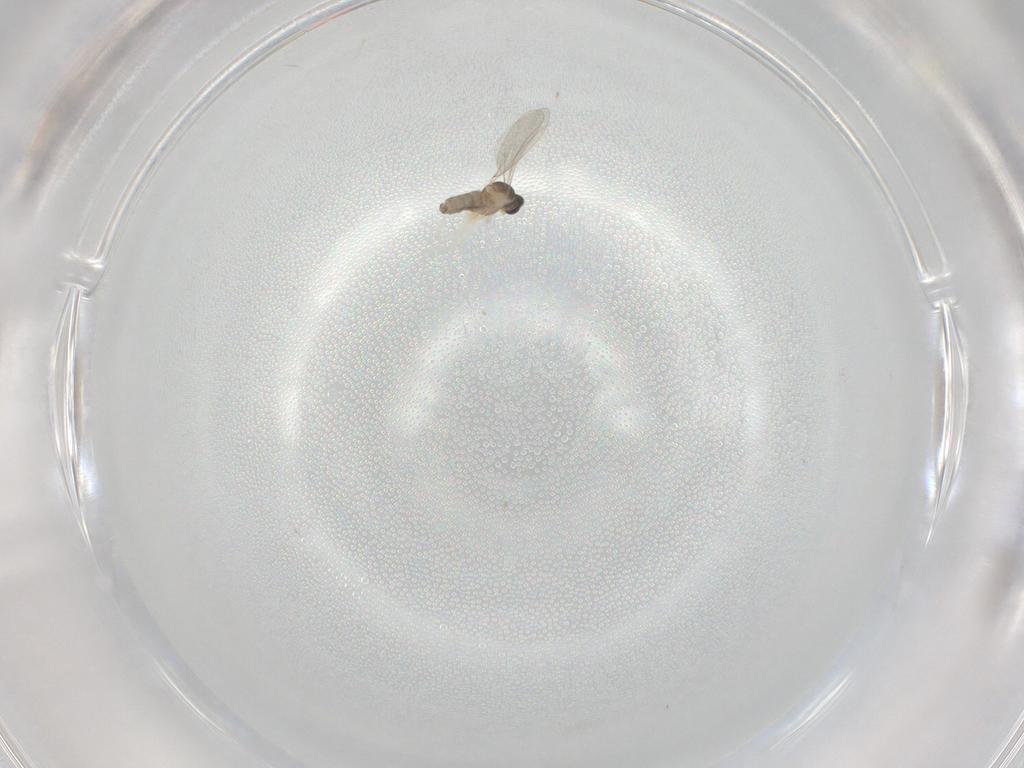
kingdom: Animalia
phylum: Arthropoda
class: Insecta
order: Diptera
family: Cecidomyiidae
